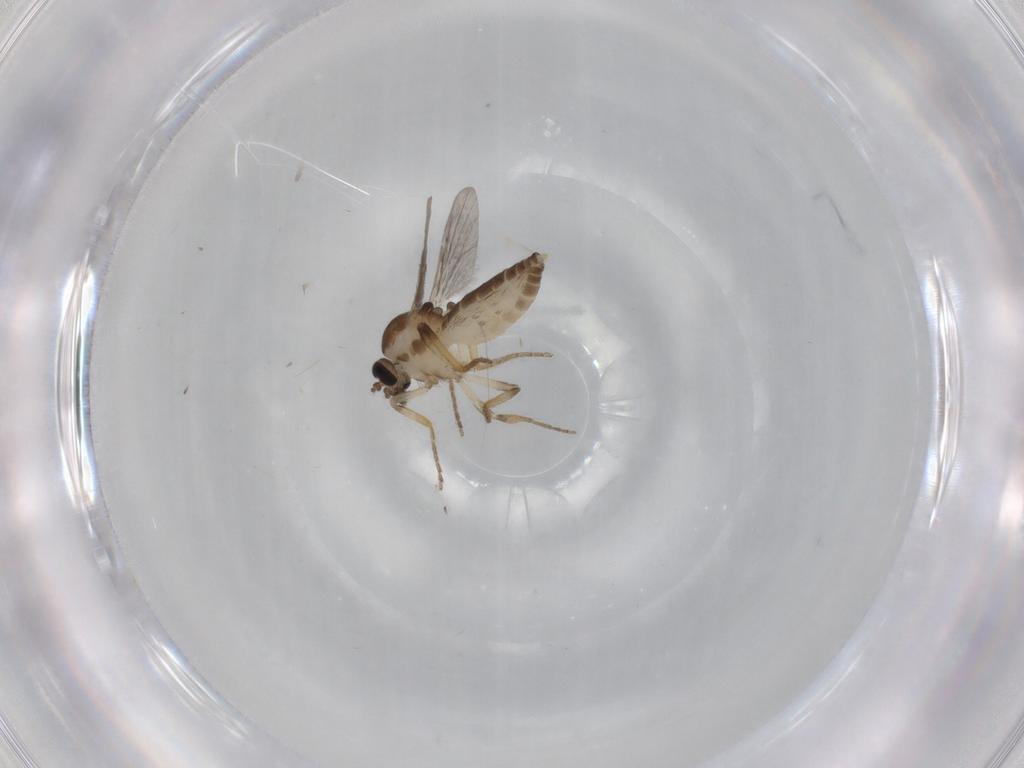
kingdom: Animalia
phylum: Arthropoda
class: Insecta
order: Diptera
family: Ceratopogonidae
